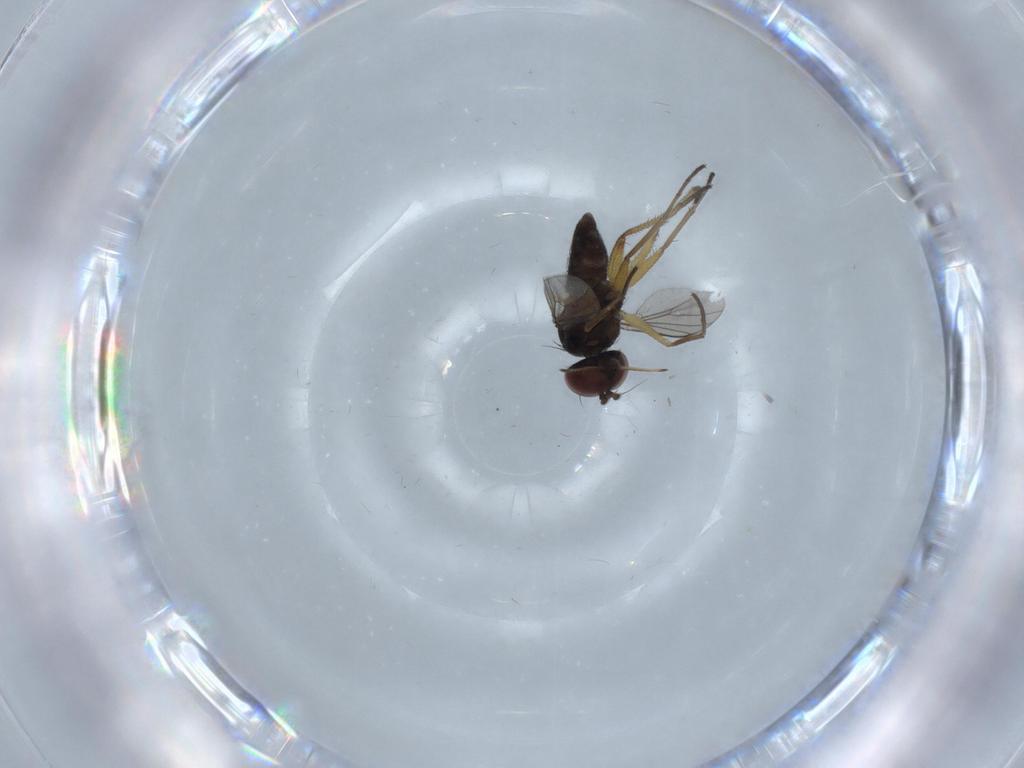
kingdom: Animalia
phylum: Arthropoda
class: Insecta
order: Diptera
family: Dolichopodidae
